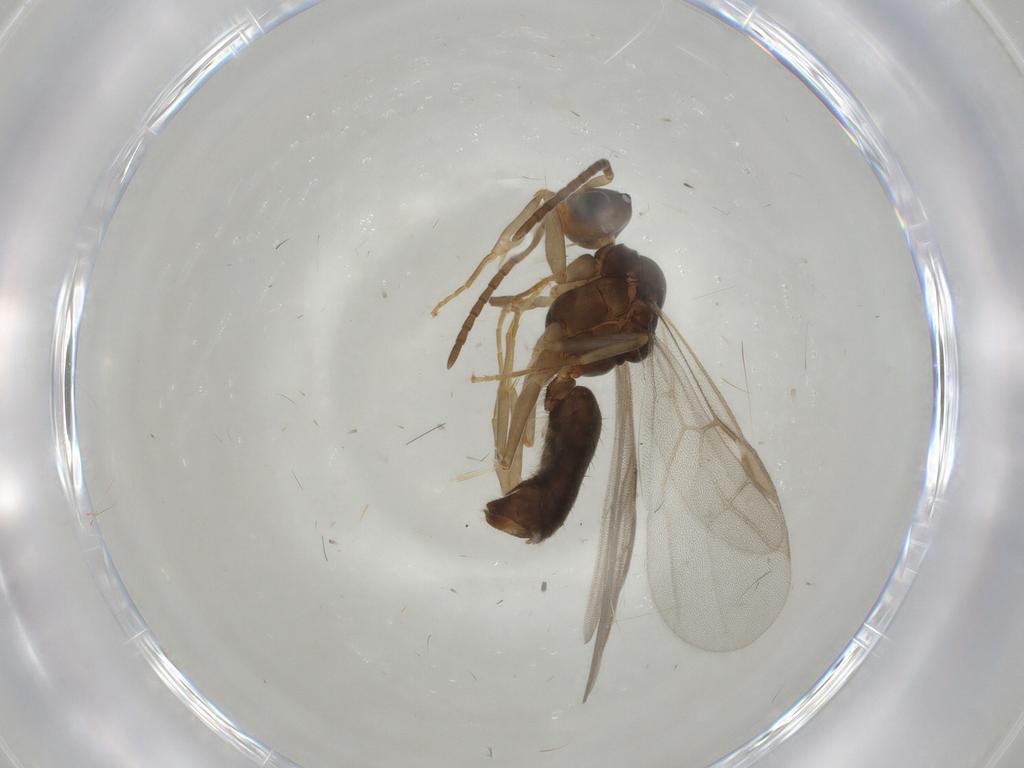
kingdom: Animalia
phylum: Arthropoda
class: Insecta
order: Hymenoptera
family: Formicidae
